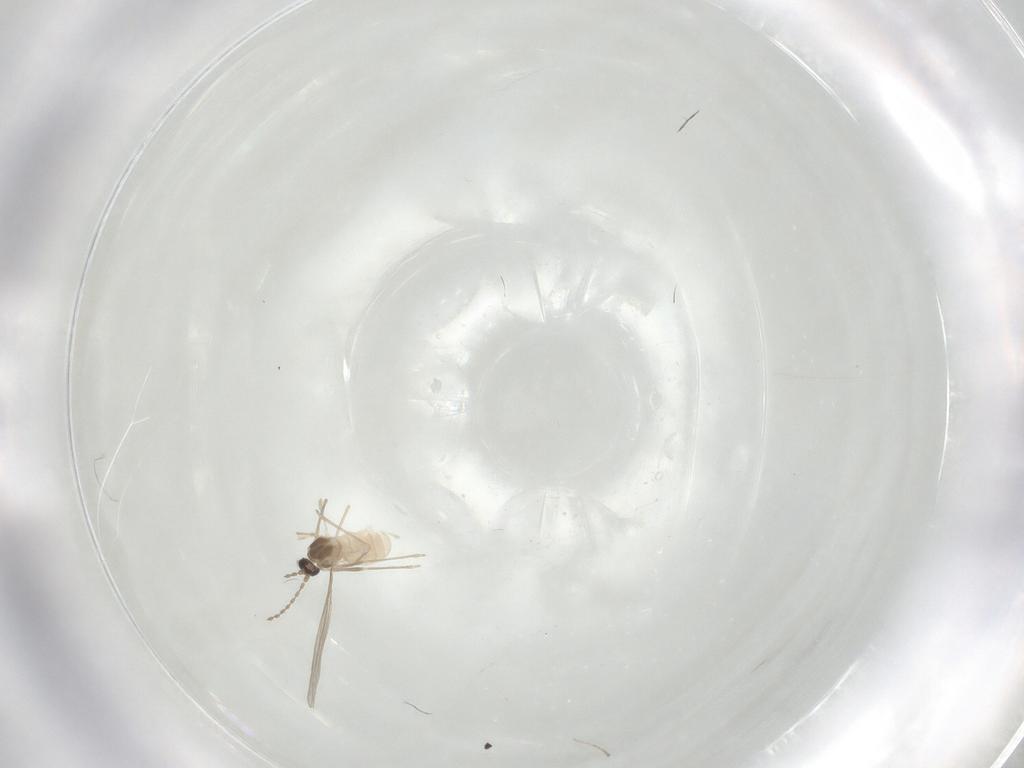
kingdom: Animalia
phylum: Arthropoda
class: Insecta
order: Diptera
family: Cecidomyiidae
